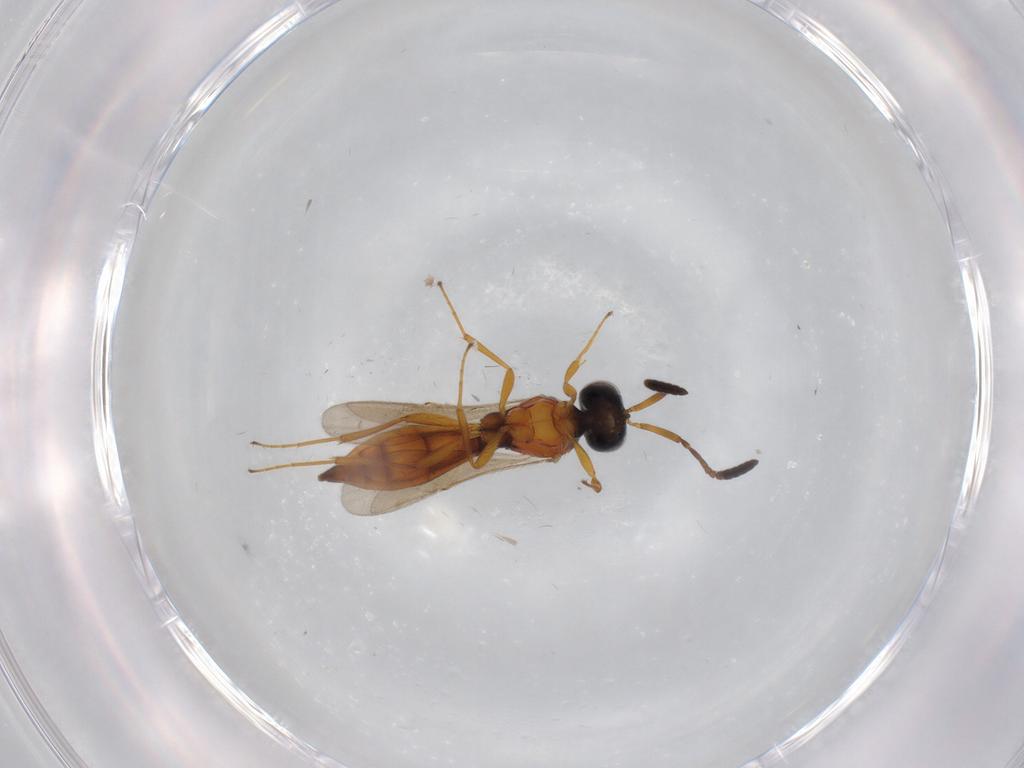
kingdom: Animalia
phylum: Arthropoda
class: Insecta
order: Hymenoptera
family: Scelionidae
